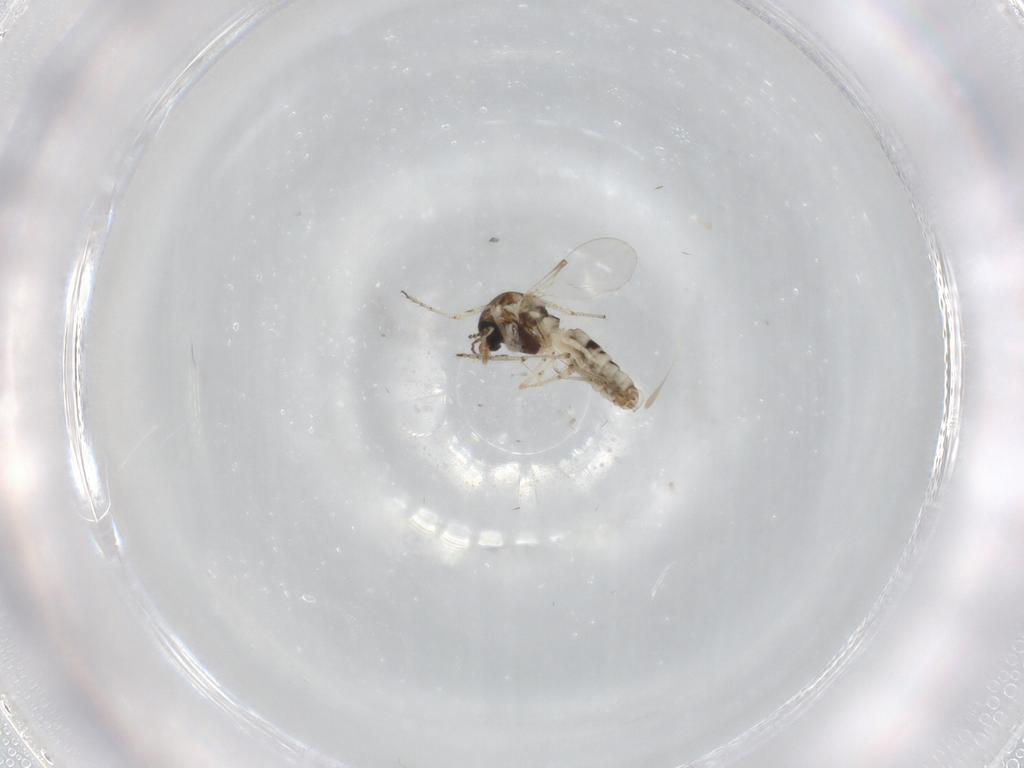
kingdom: Animalia
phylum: Arthropoda
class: Insecta
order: Diptera
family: Ceratopogonidae
